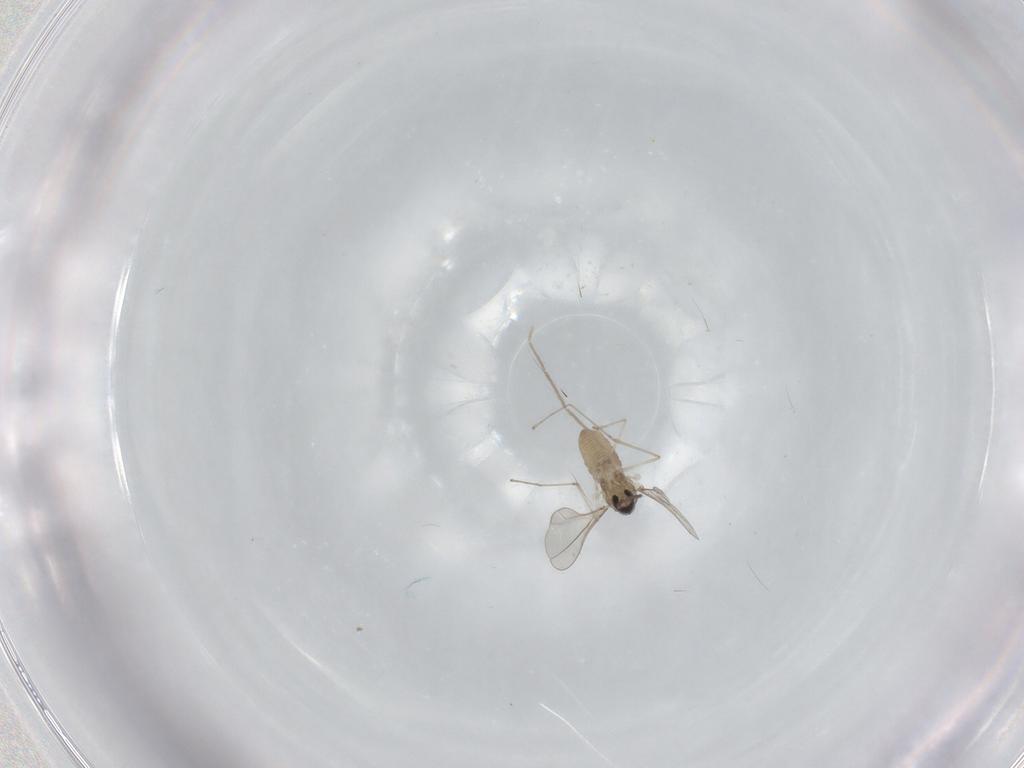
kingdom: Animalia
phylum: Arthropoda
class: Insecta
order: Diptera
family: Cecidomyiidae
